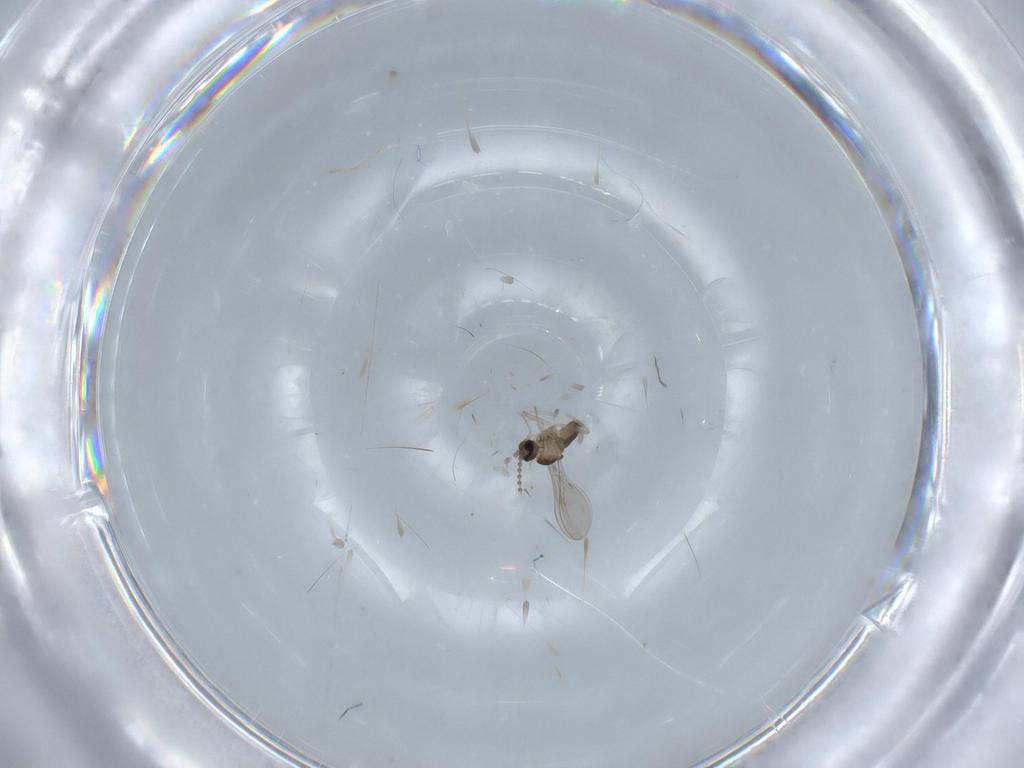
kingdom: Animalia
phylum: Arthropoda
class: Insecta
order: Diptera
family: Cecidomyiidae
